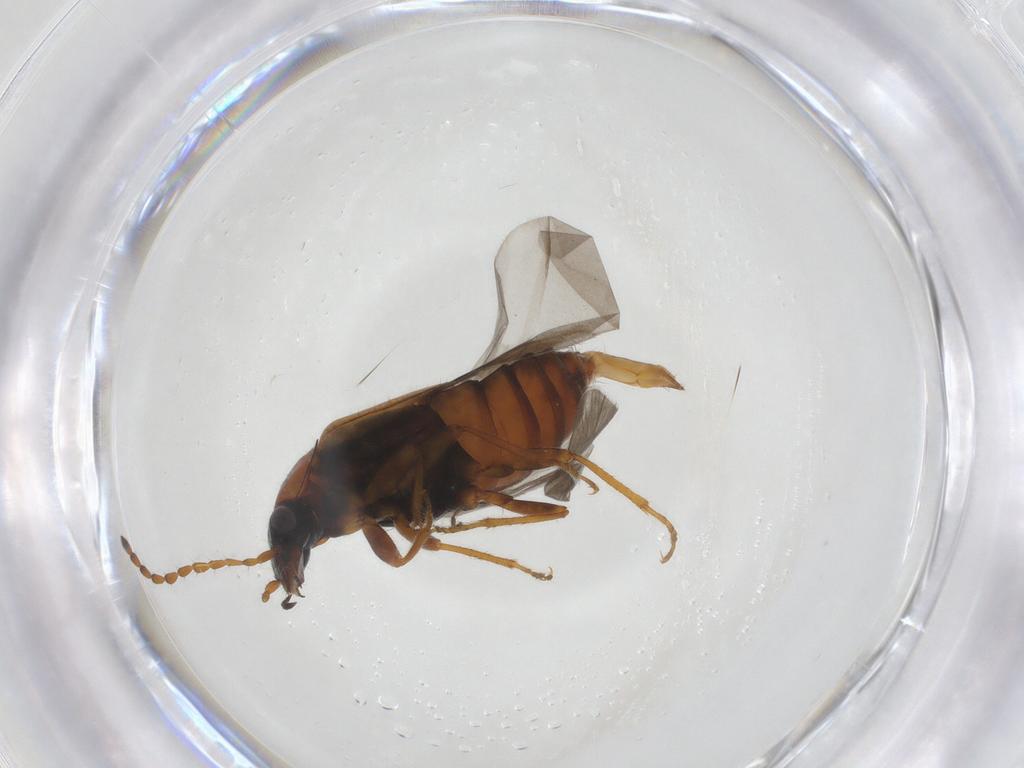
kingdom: Animalia
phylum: Arthropoda
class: Insecta
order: Coleoptera
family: Staphylinidae
